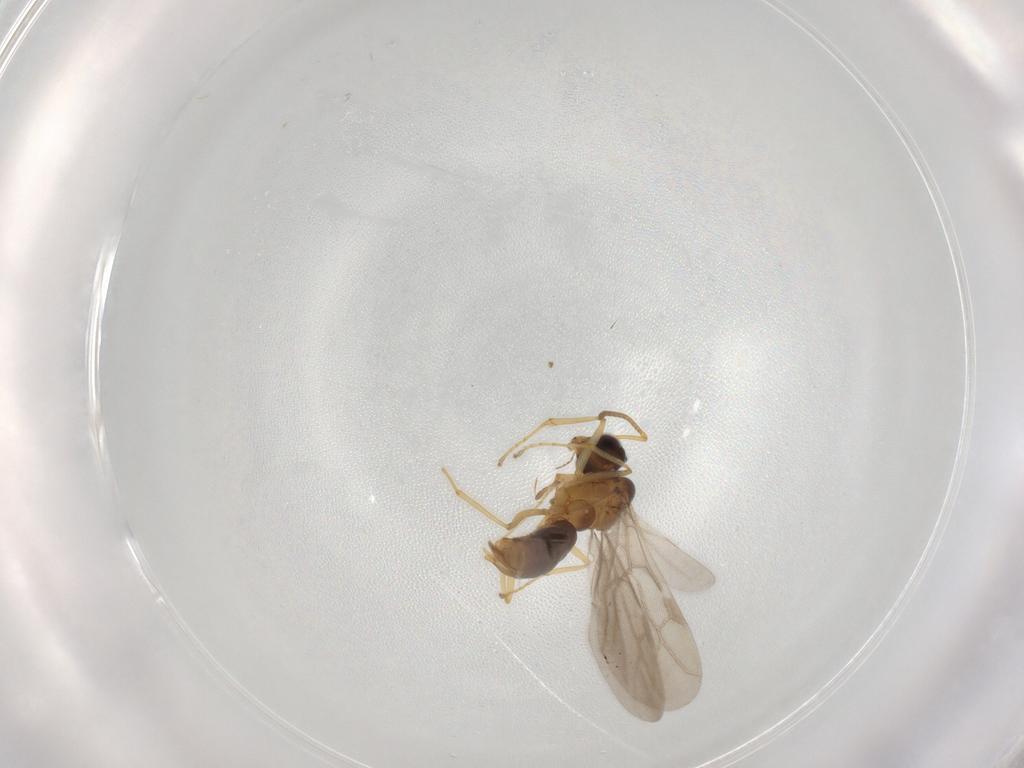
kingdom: Animalia
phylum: Arthropoda
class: Insecta
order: Hymenoptera
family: Formicidae
